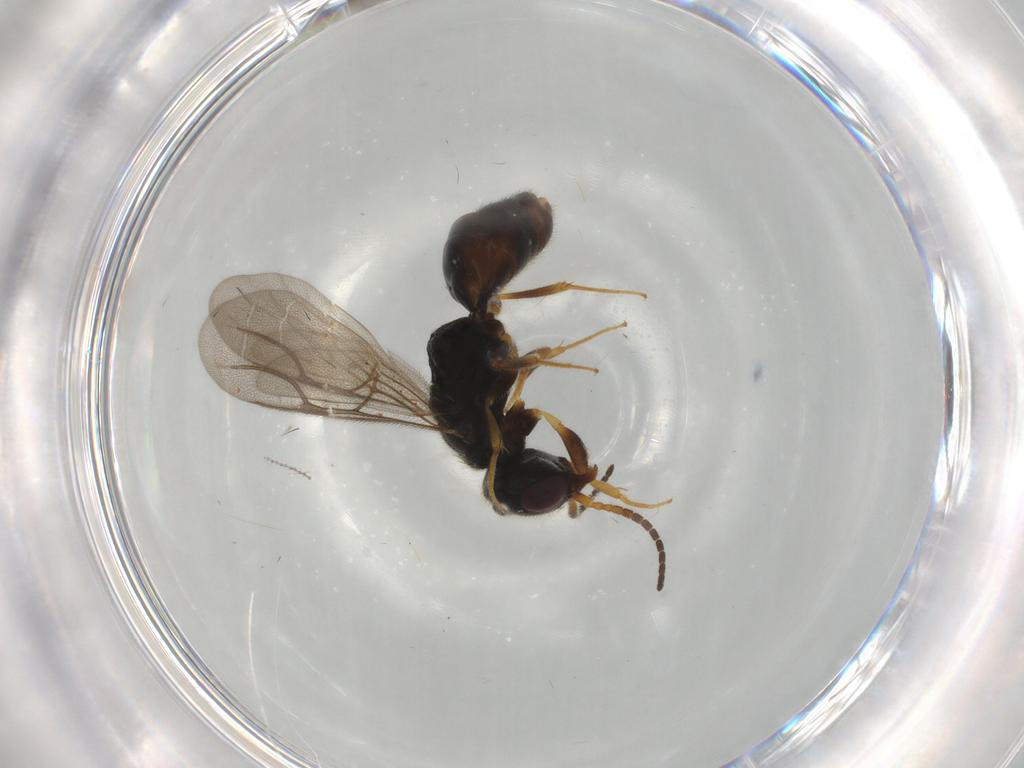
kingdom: Animalia
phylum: Arthropoda
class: Insecta
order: Hymenoptera
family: Bethylidae
